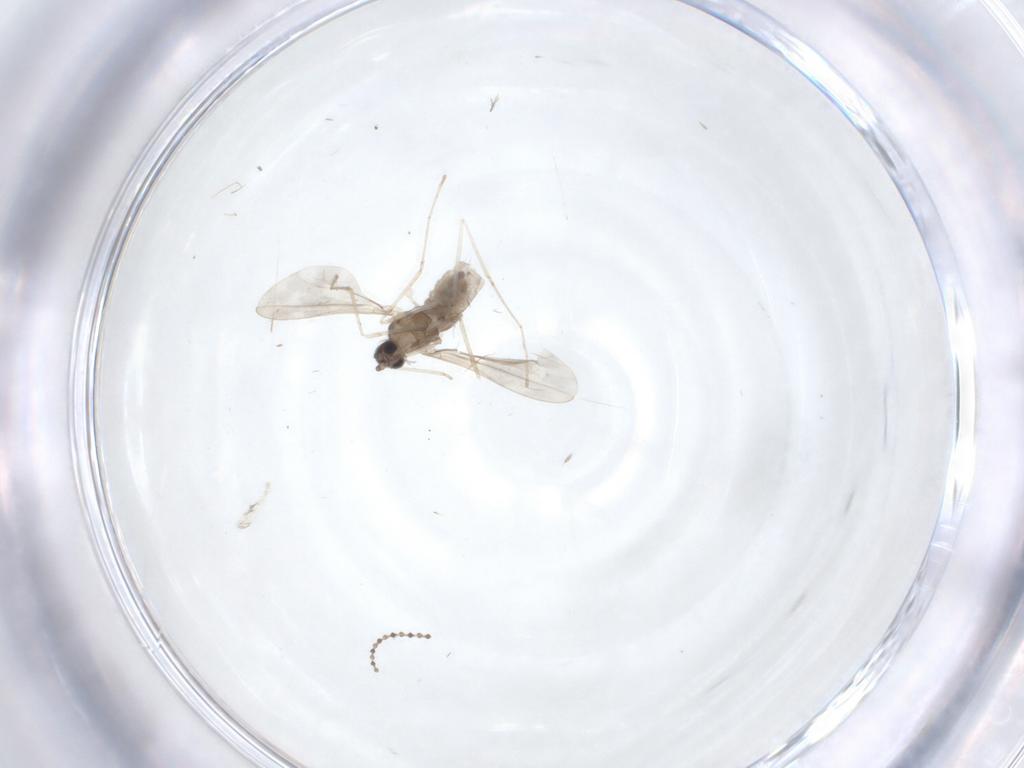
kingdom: Animalia
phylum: Arthropoda
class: Insecta
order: Diptera
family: Cecidomyiidae
